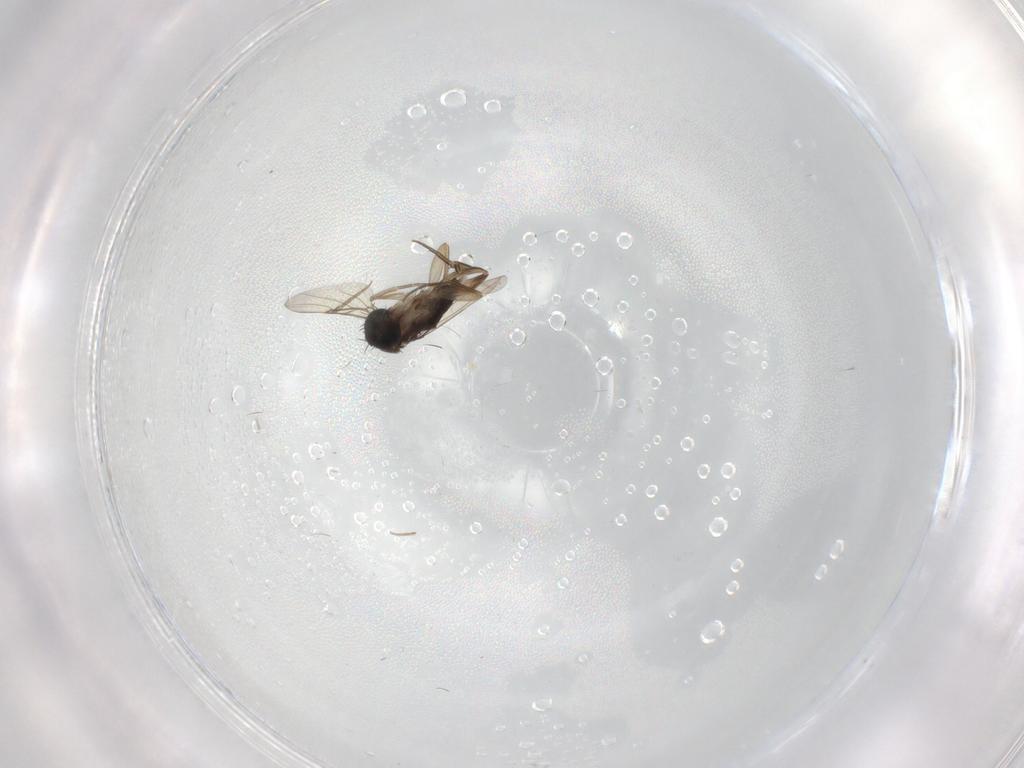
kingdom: Animalia
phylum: Arthropoda
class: Insecta
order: Diptera
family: Phoridae
